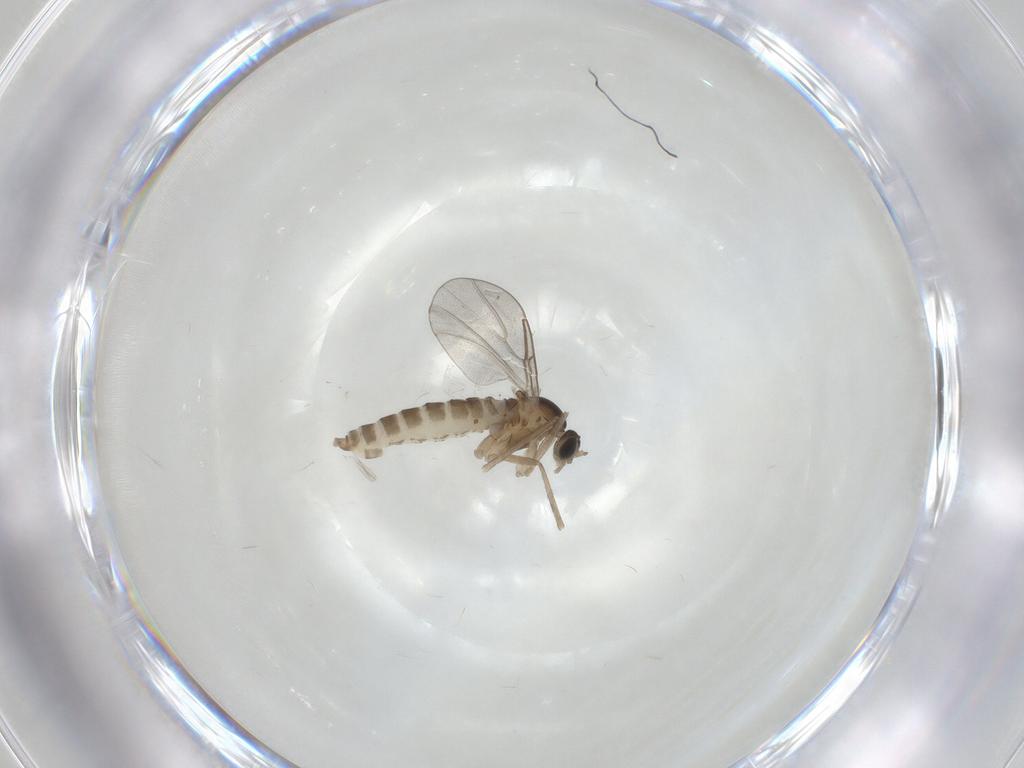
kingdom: Animalia
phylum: Arthropoda
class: Insecta
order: Diptera
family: Cecidomyiidae
